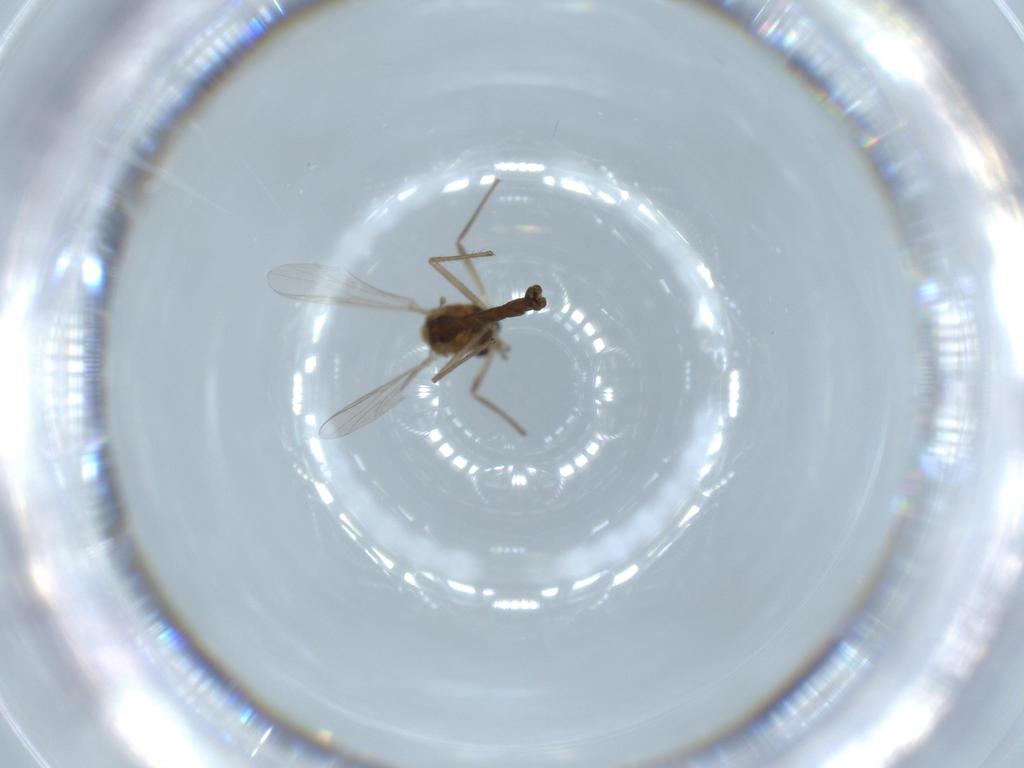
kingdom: Animalia
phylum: Arthropoda
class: Insecta
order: Diptera
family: Chironomidae
